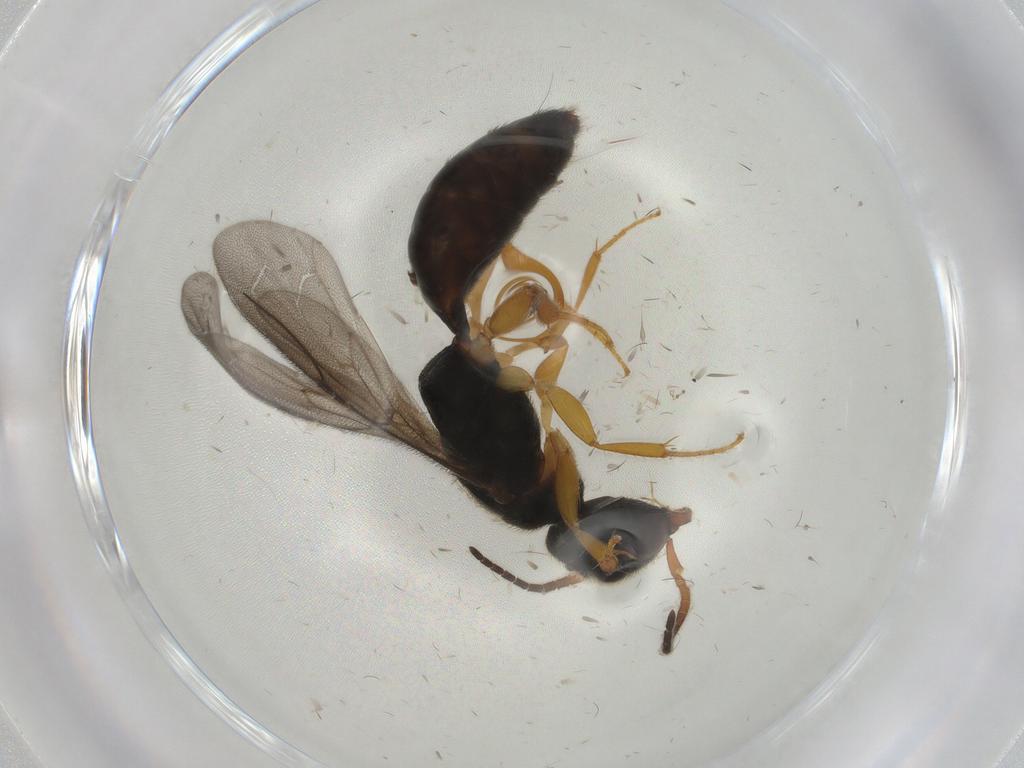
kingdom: Animalia
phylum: Arthropoda
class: Insecta
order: Hymenoptera
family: Bethylidae
